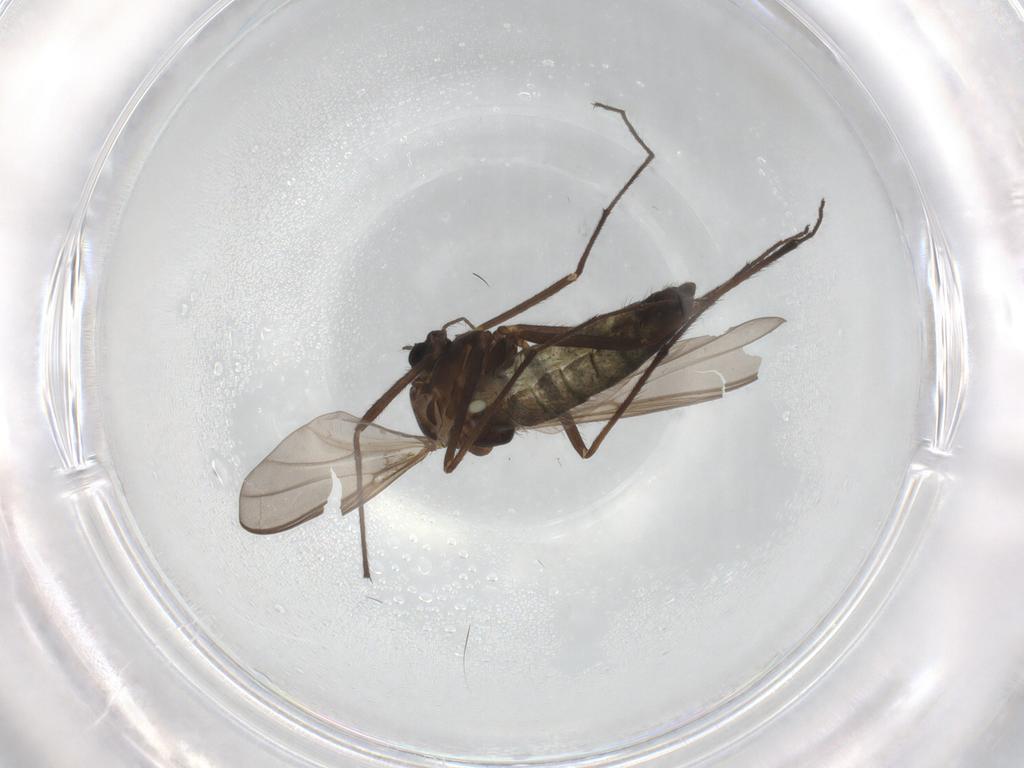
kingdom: Animalia
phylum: Arthropoda
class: Insecta
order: Diptera
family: Chironomidae
